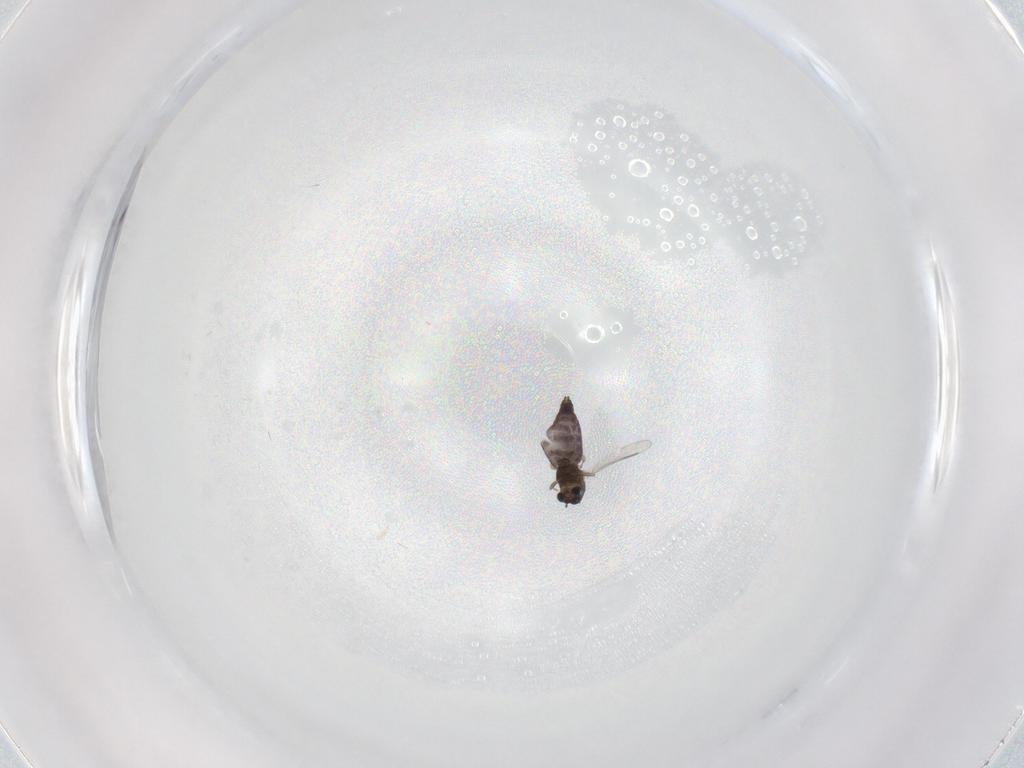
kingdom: Animalia
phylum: Arthropoda
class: Insecta
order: Diptera
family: Chironomidae
